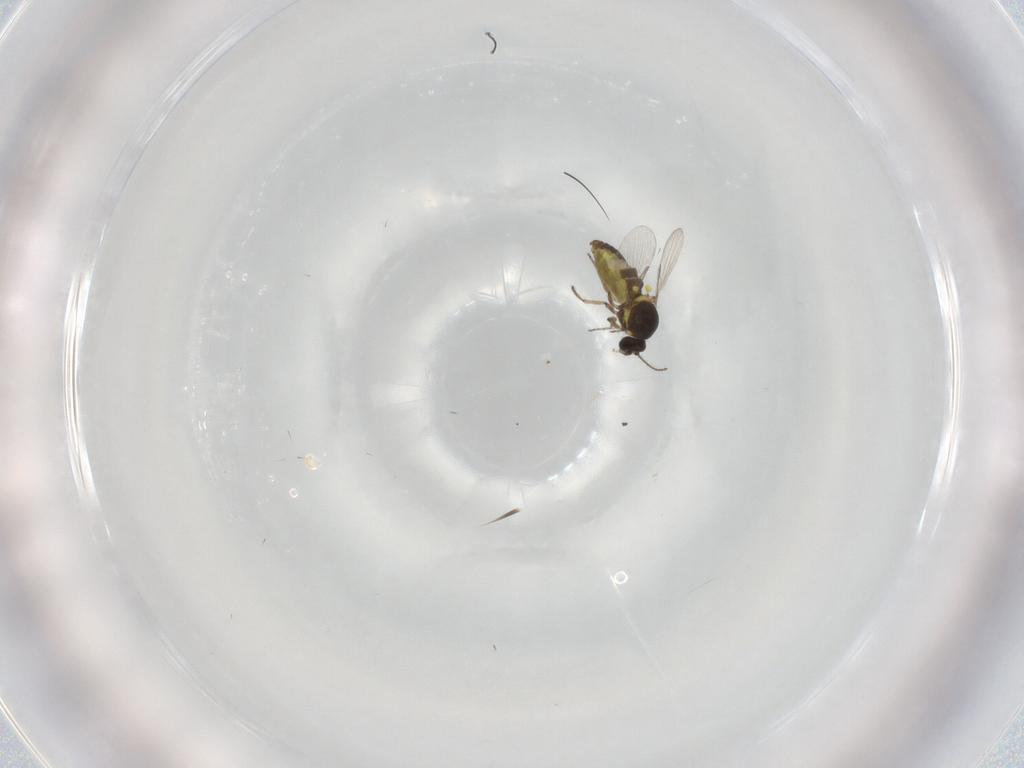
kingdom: Animalia
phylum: Arthropoda
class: Insecta
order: Diptera
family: Ceratopogonidae
